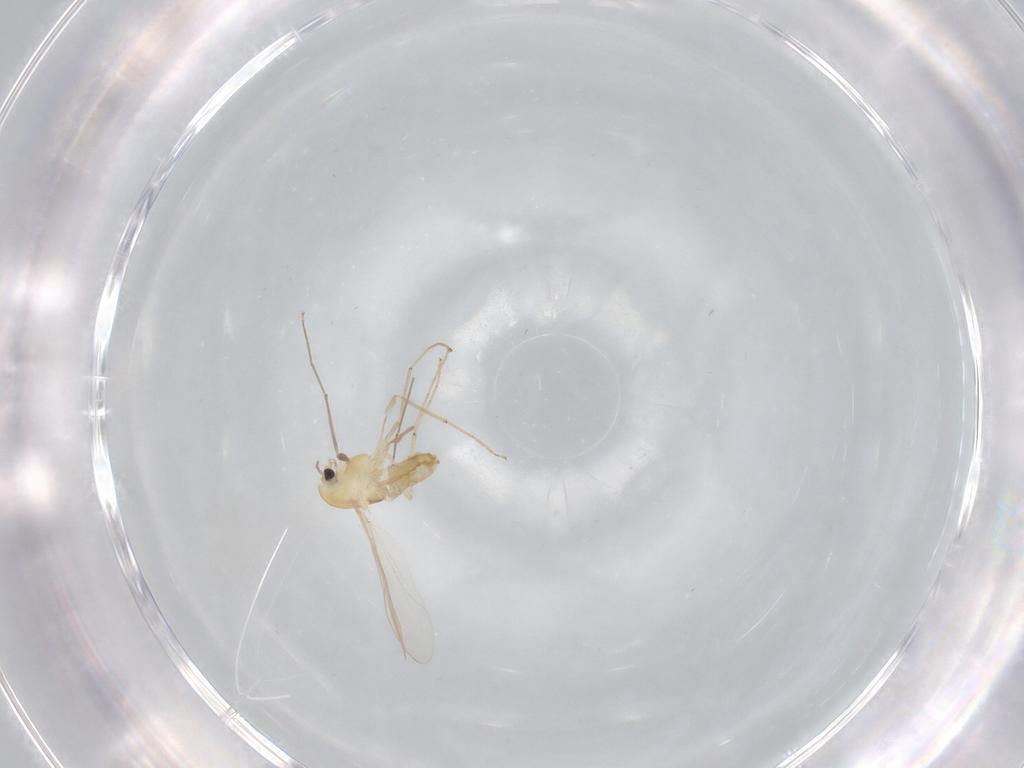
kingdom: Animalia
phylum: Arthropoda
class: Insecta
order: Diptera
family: Chironomidae
